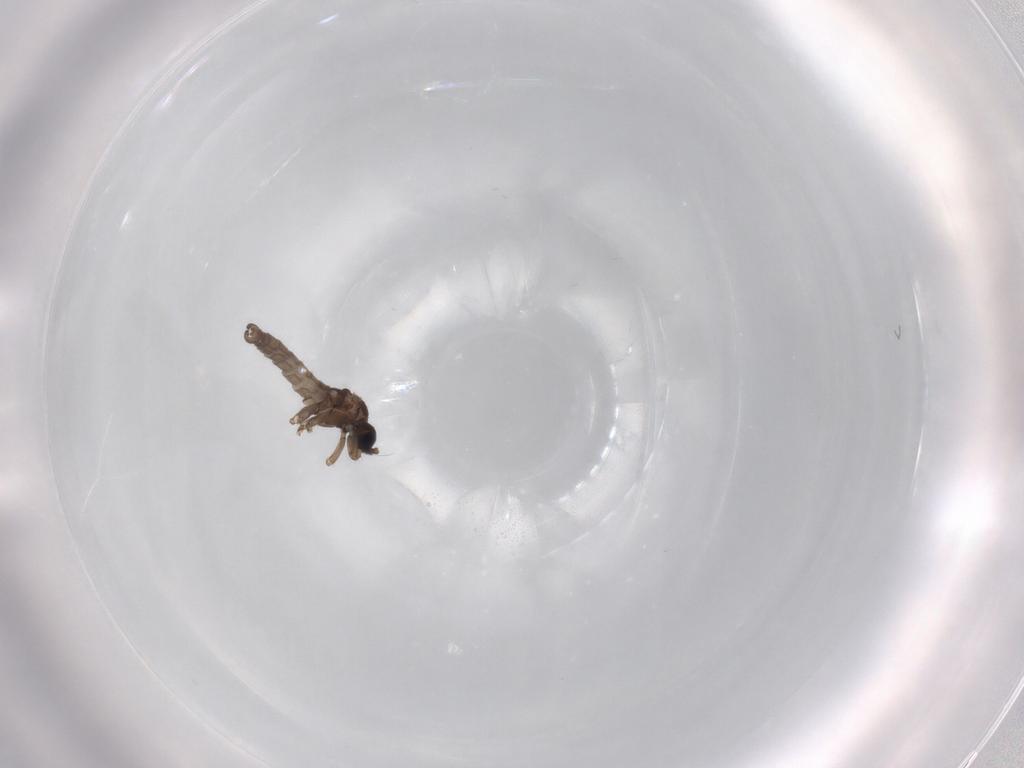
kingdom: Animalia
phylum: Arthropoda
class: Insecta
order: Diptera
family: Sciaridae
